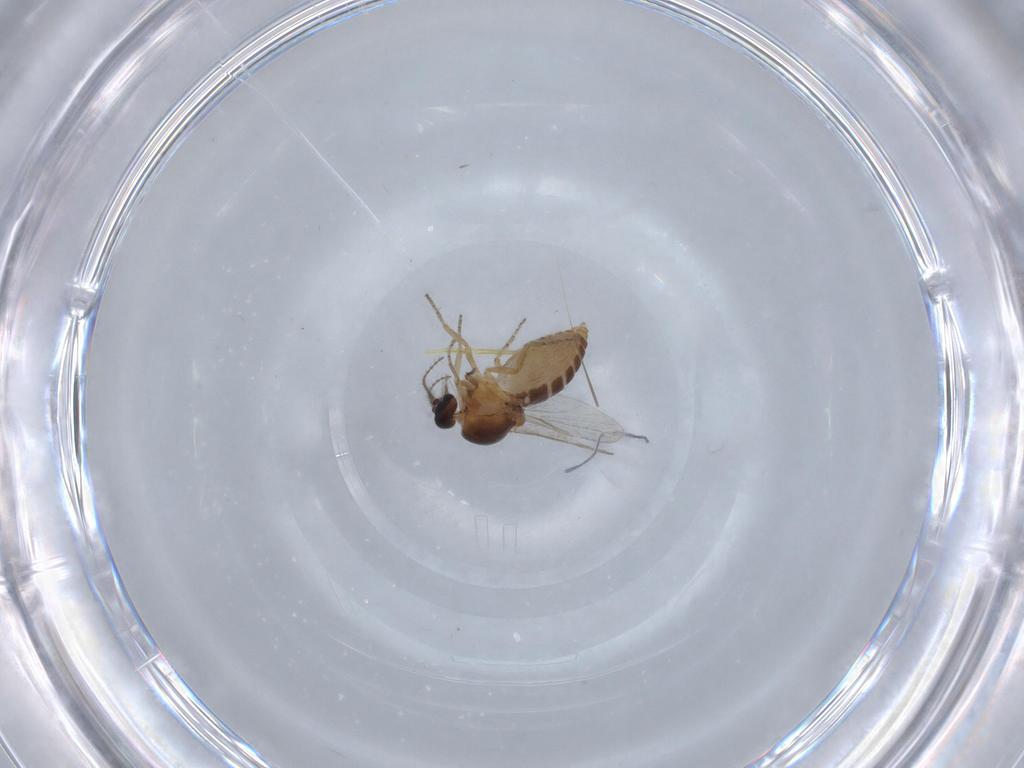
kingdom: Animalia
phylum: Arthropoda
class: Insecta
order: Diptera
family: Ceratopogonidae
